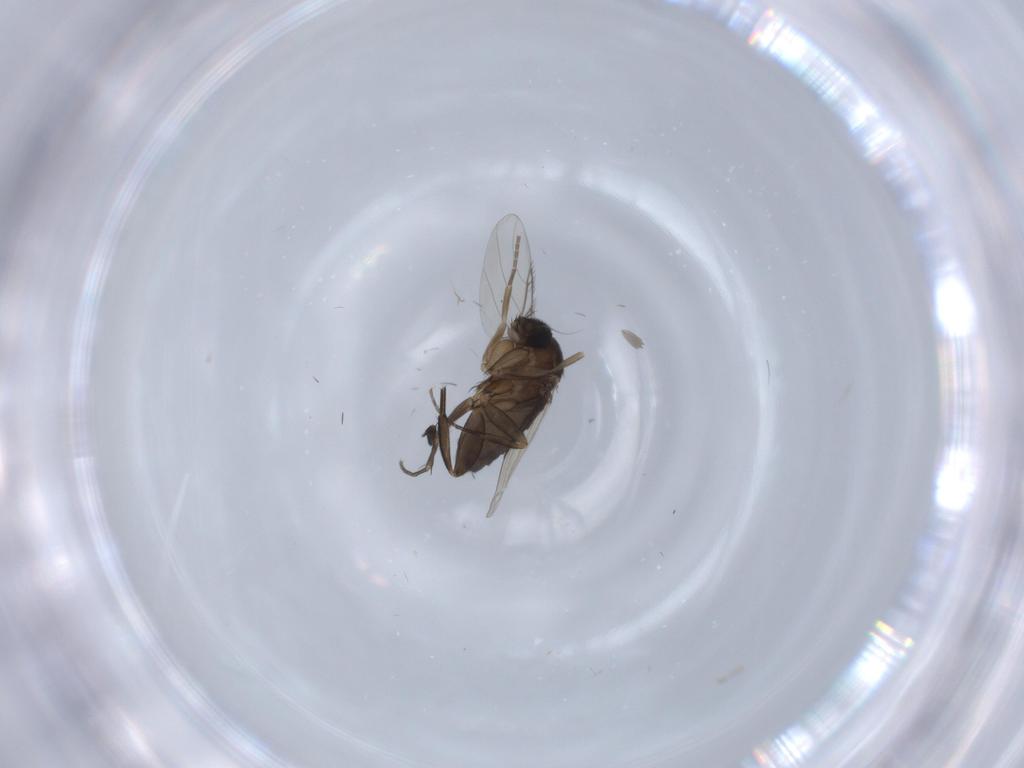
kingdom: Animalia
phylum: Arthropoda
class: Insecta
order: Diptera
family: Phoridae
